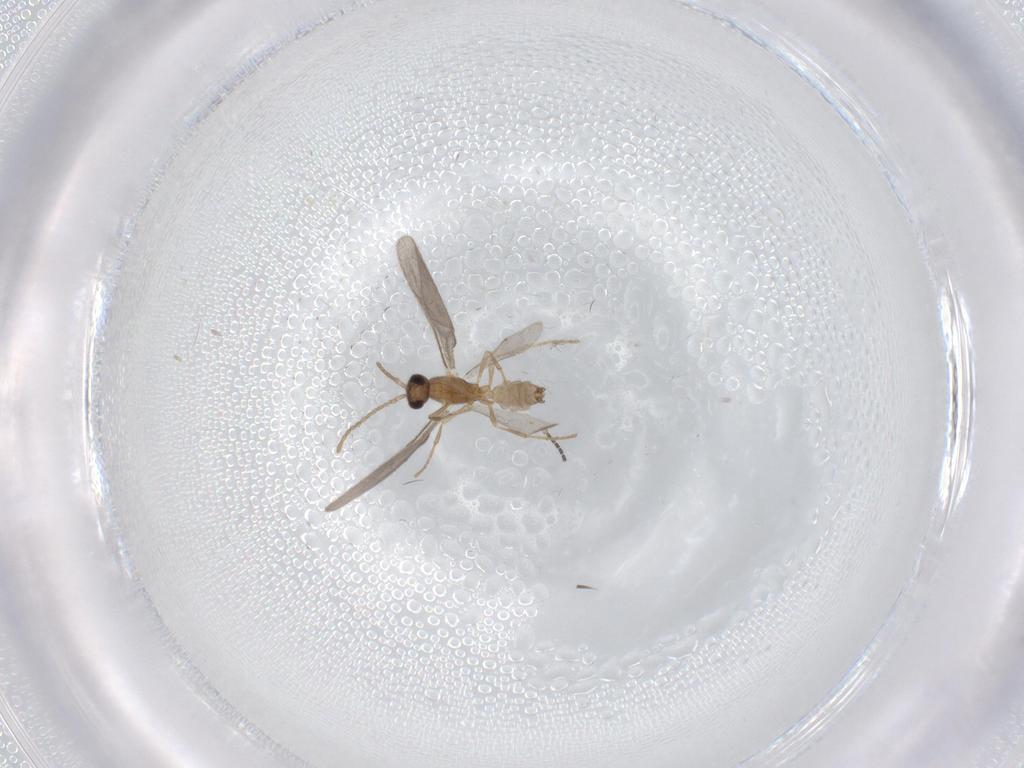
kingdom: Animalia
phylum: Arthropoda
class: Insecta
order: Hymenoptera
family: Formicidae
